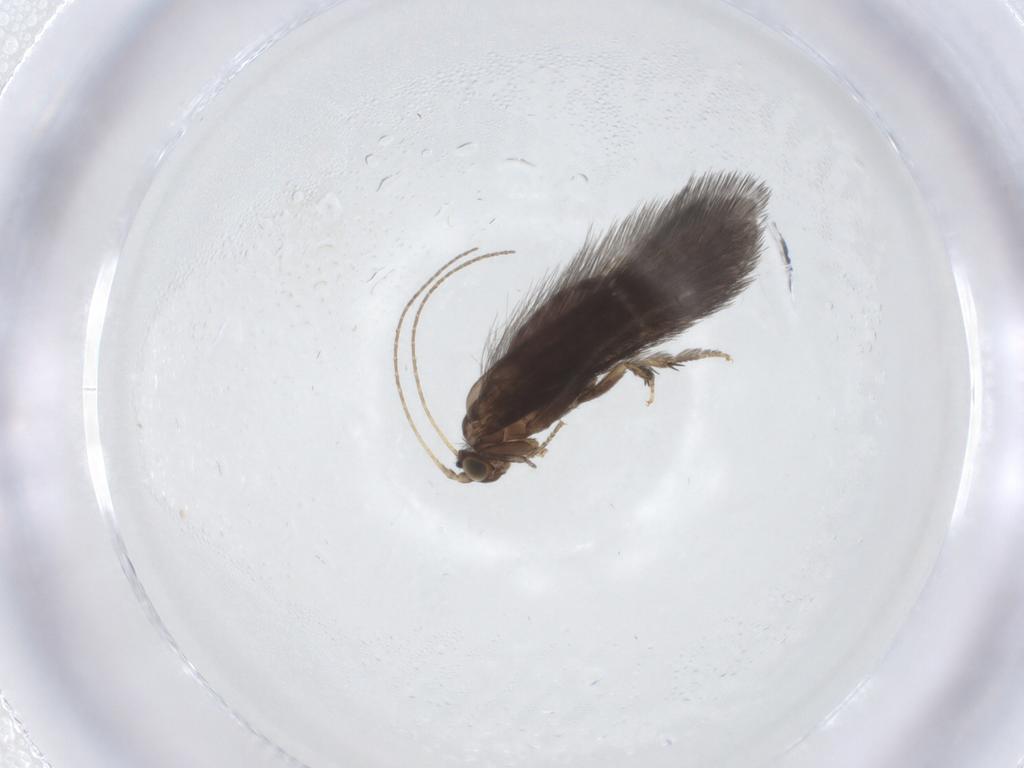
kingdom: Animalia
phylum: Arthropoda
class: Insecta
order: Trichoptera
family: Glossosomatidae
